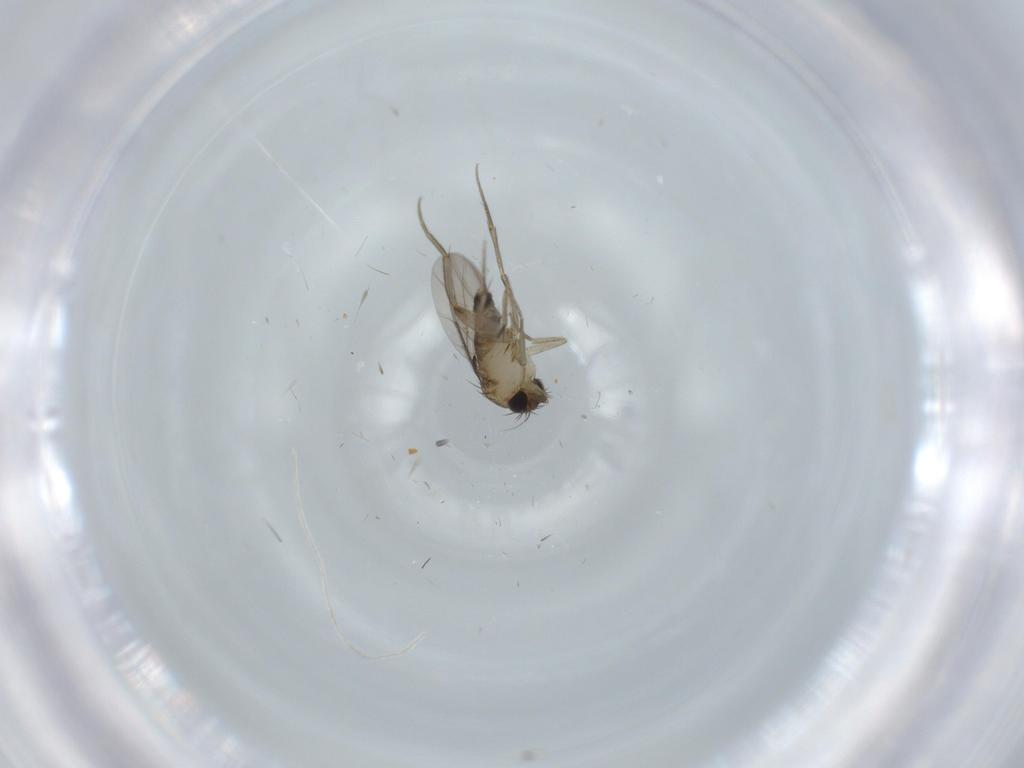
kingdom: Animalia
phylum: Arthropoda
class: Insecta
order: Diptera
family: Phoridae
